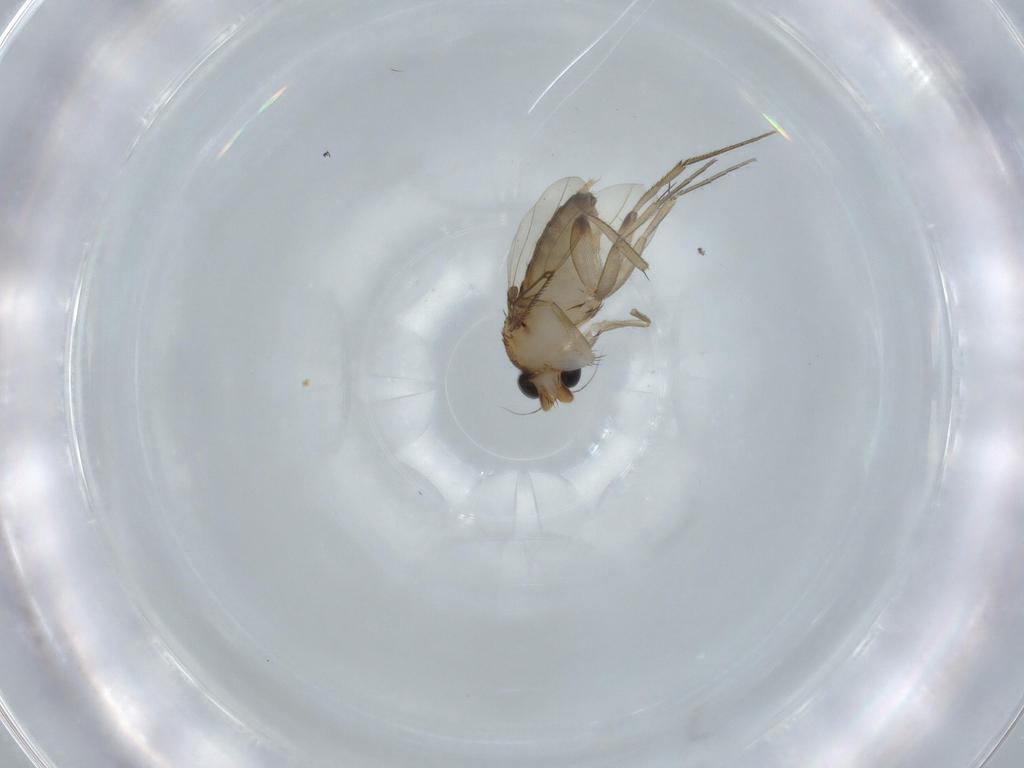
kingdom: Animalia
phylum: Arthropoda
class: Insecta
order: Diptera
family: Phoridae
